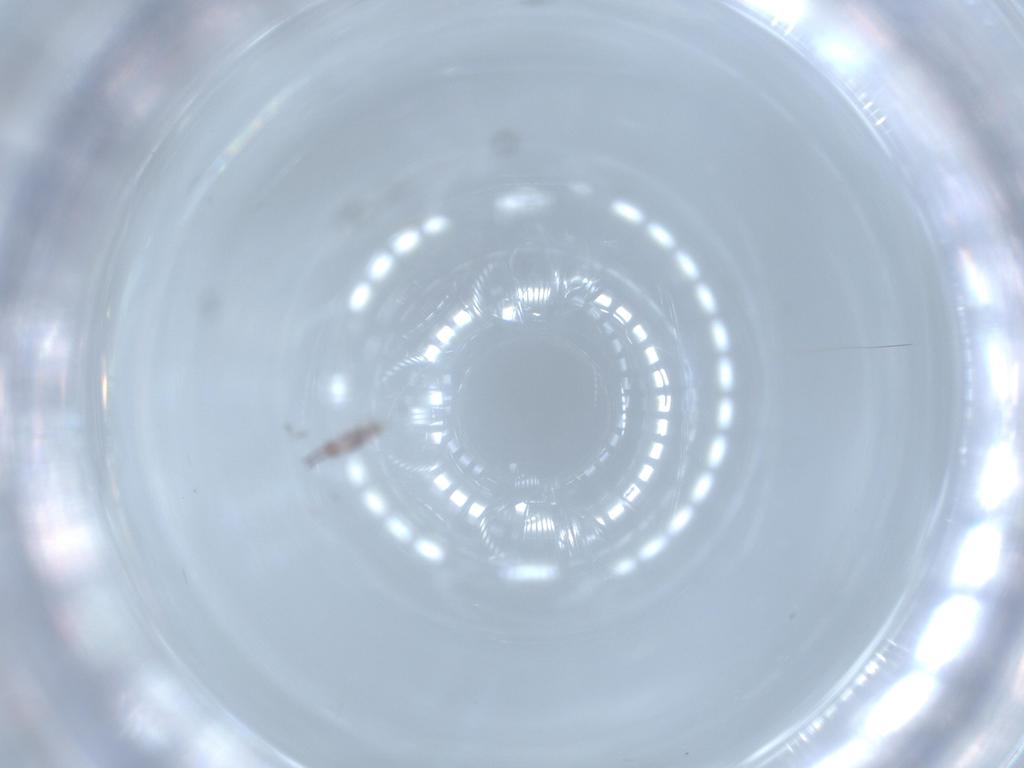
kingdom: Animalia
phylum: Arthropoda
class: Collembola
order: Entomobryomorpha
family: Entomobryidae
